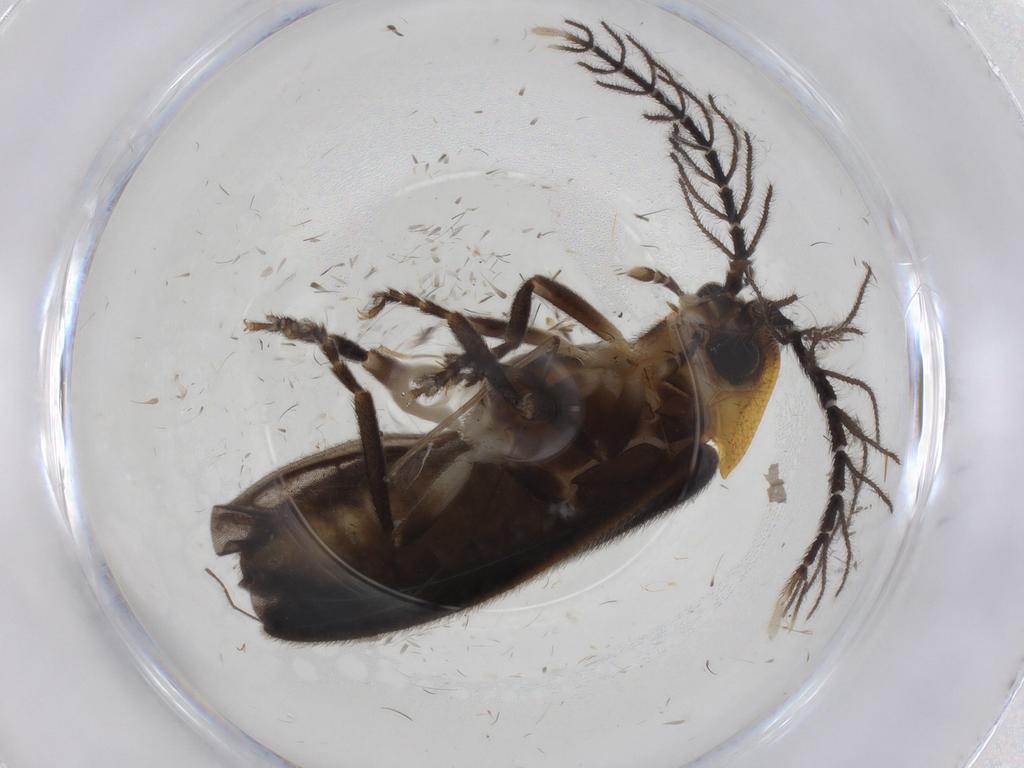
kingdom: Animalia
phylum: Arthropoda
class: Insecta
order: Coleoptera
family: Lampyridae
